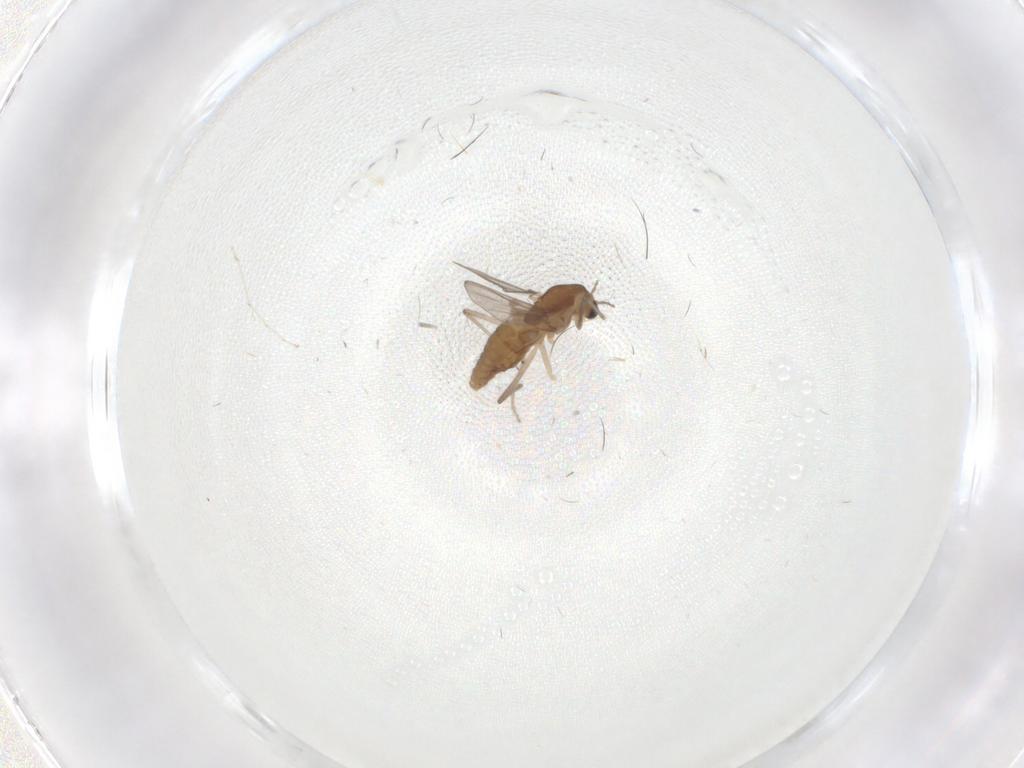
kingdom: Animalia
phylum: Arthropoda
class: Insecta
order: Diptera
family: Chironomidae
